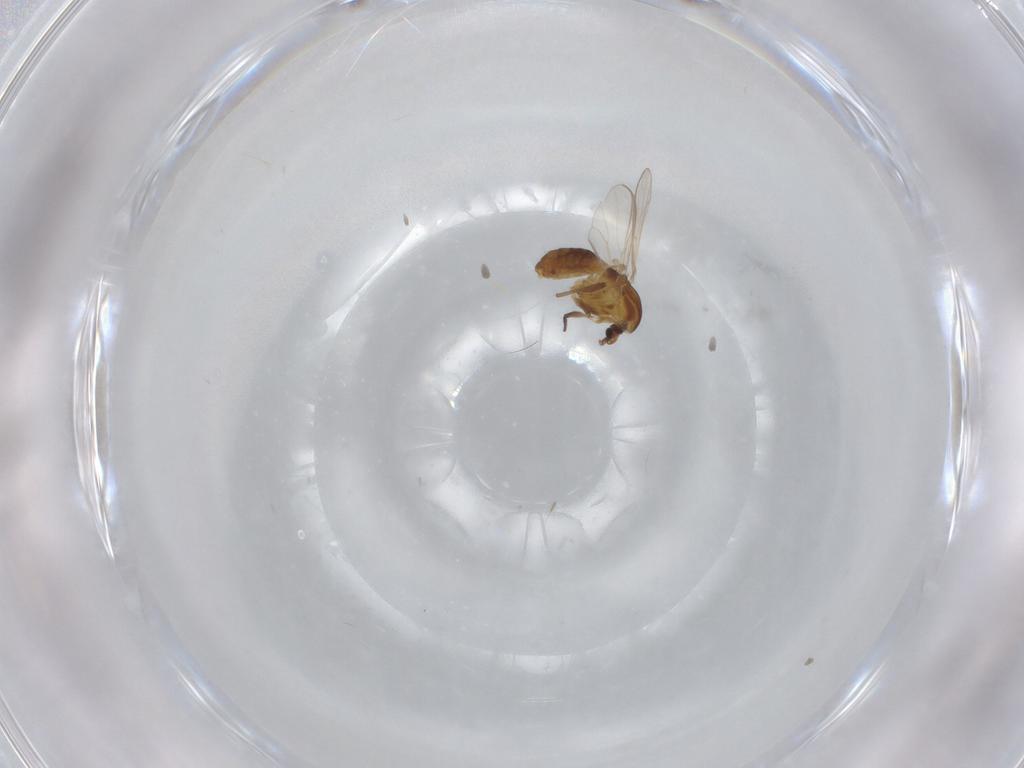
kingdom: Animalia
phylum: Arthropoda
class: Insecta
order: Diptera
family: Chironomidae
